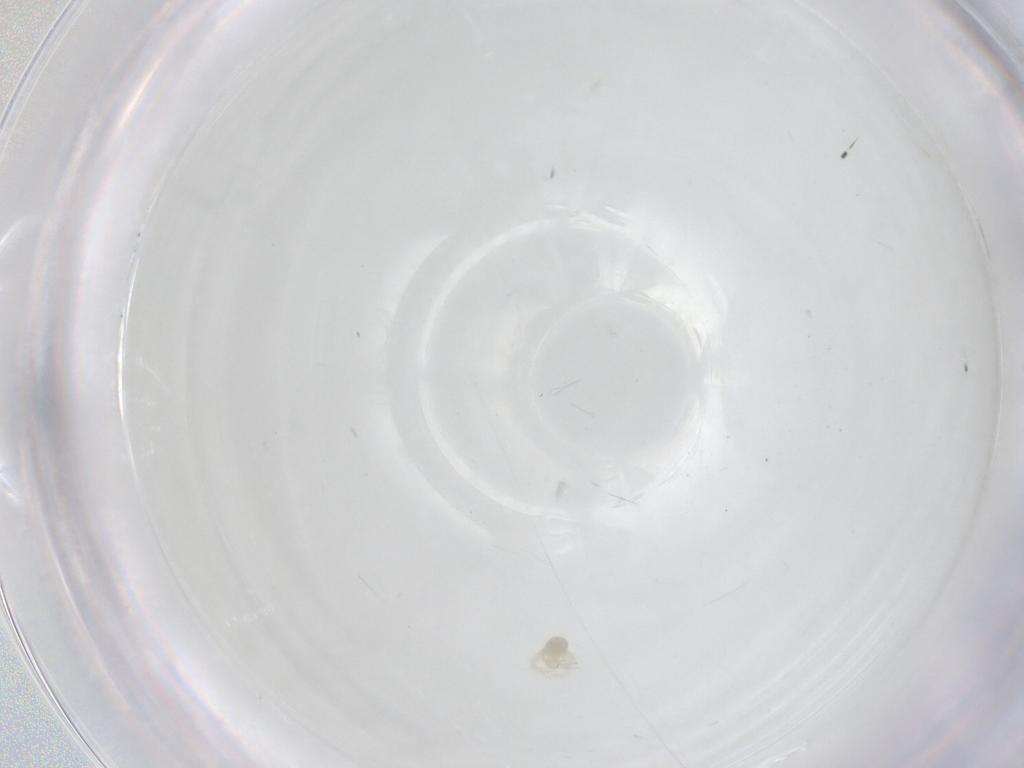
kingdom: Animalia
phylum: Arthropoda
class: Arachnida
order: Trombidiformes
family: Anystidae
